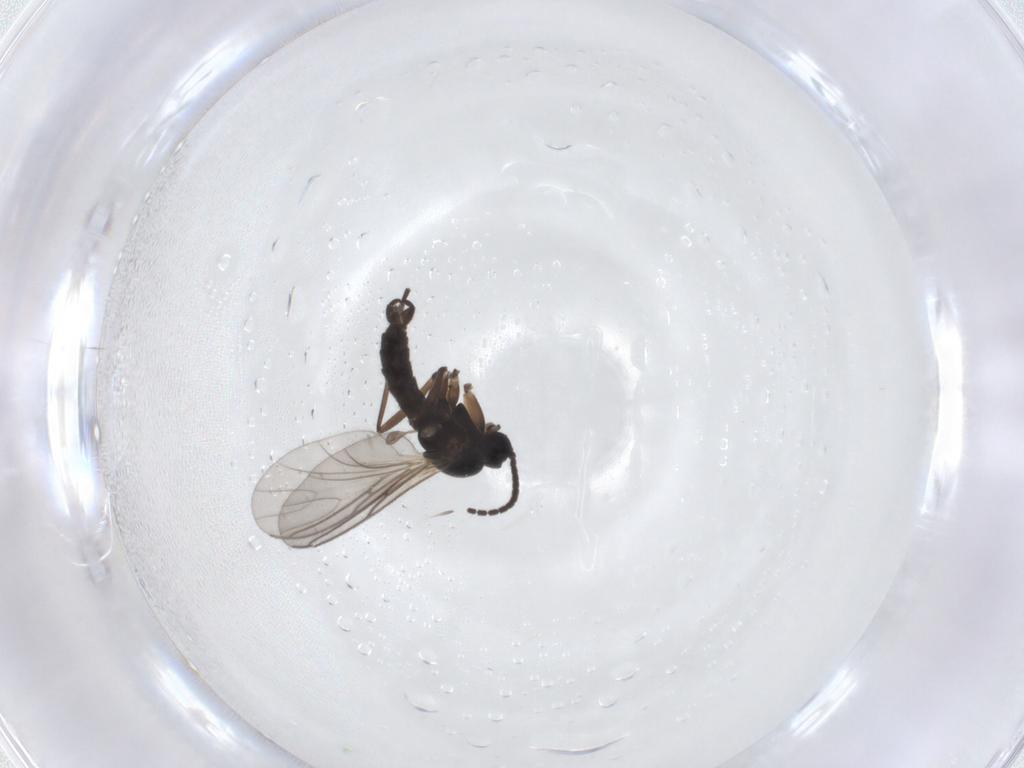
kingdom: Animalia
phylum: Arthropoda
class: Insecta
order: Diptera
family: Sciaridae
